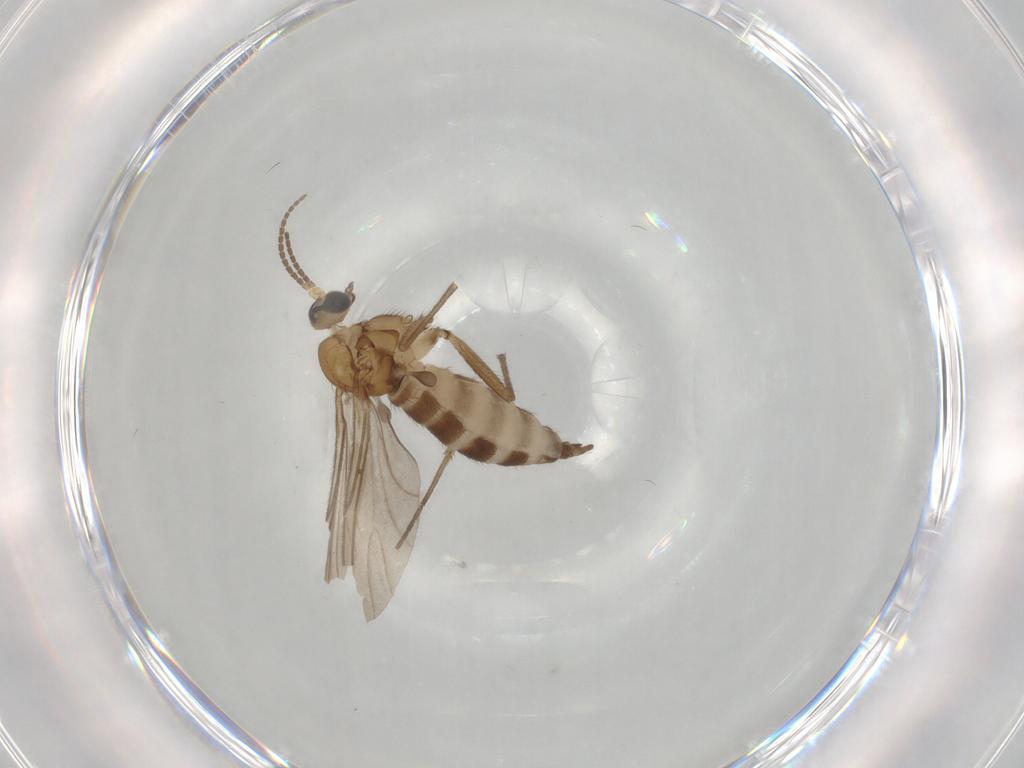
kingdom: Animalia
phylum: Arthropoda
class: Insecta
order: Diptera
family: Sciaridae
